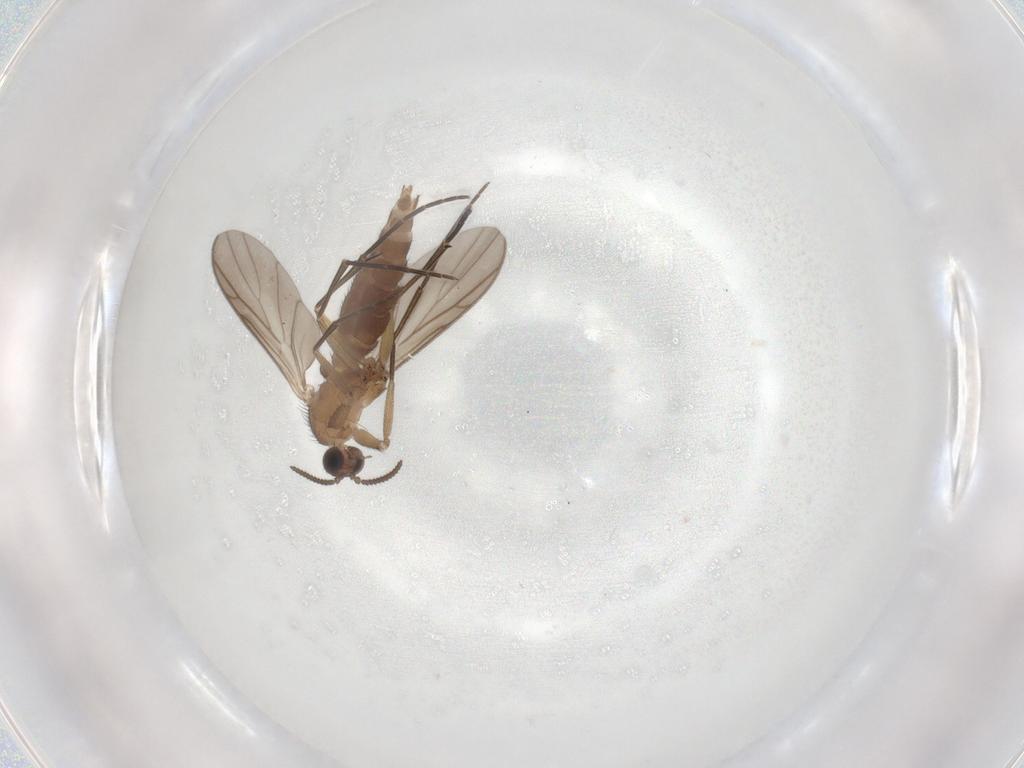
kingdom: Animalia
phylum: Arthropoda
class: Insecta
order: Diptera
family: Keroplatidae
